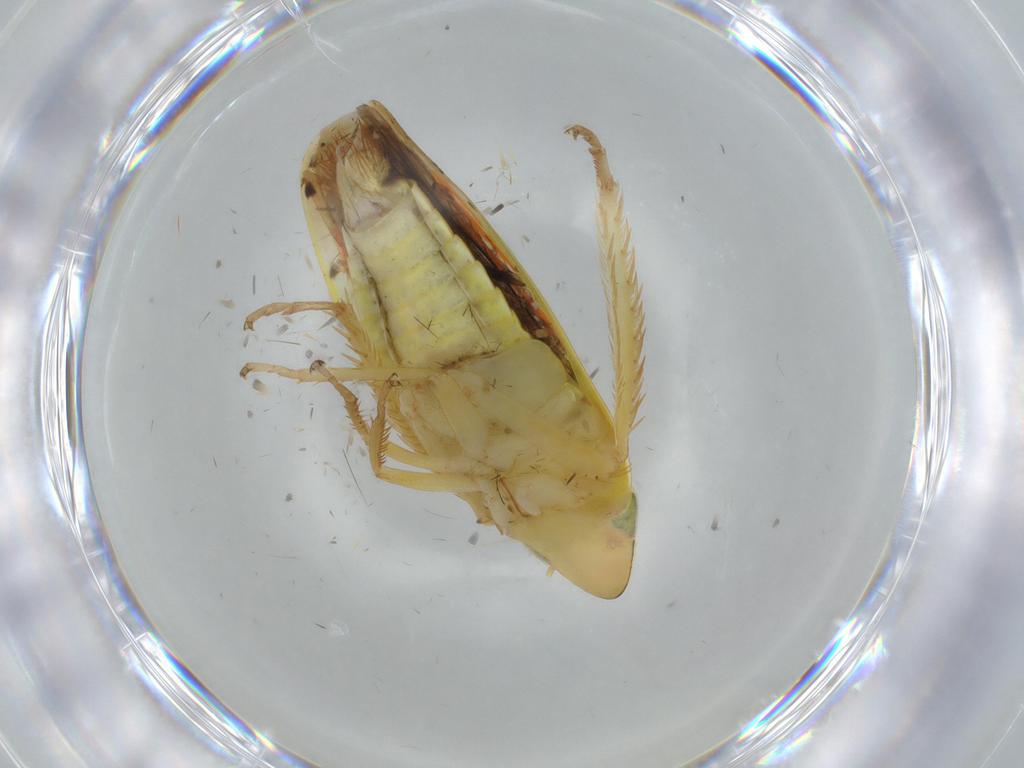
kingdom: Animalia
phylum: Arthropoda
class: Insecta
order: Hemiptera
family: Cicadellidae
